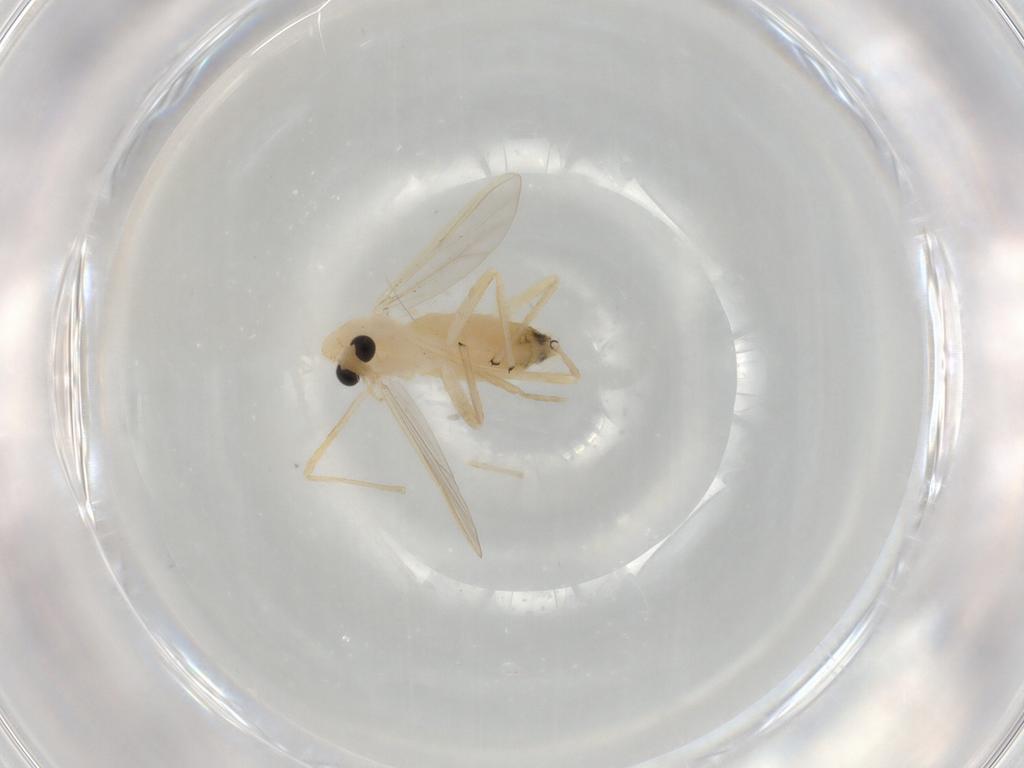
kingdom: Animalia
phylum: Arthropoda
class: Insecta
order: Diptera
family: Chironomidae
